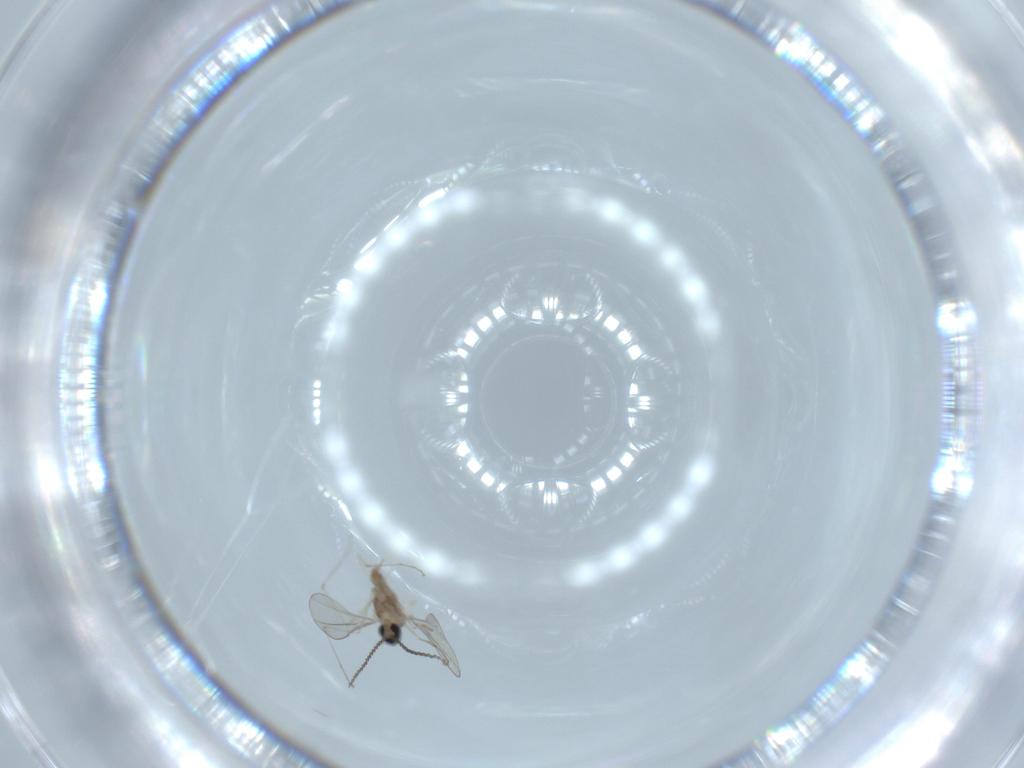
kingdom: Animalia
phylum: Arthropoda
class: Insecta
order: Diptera
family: Cecidomyiidae
